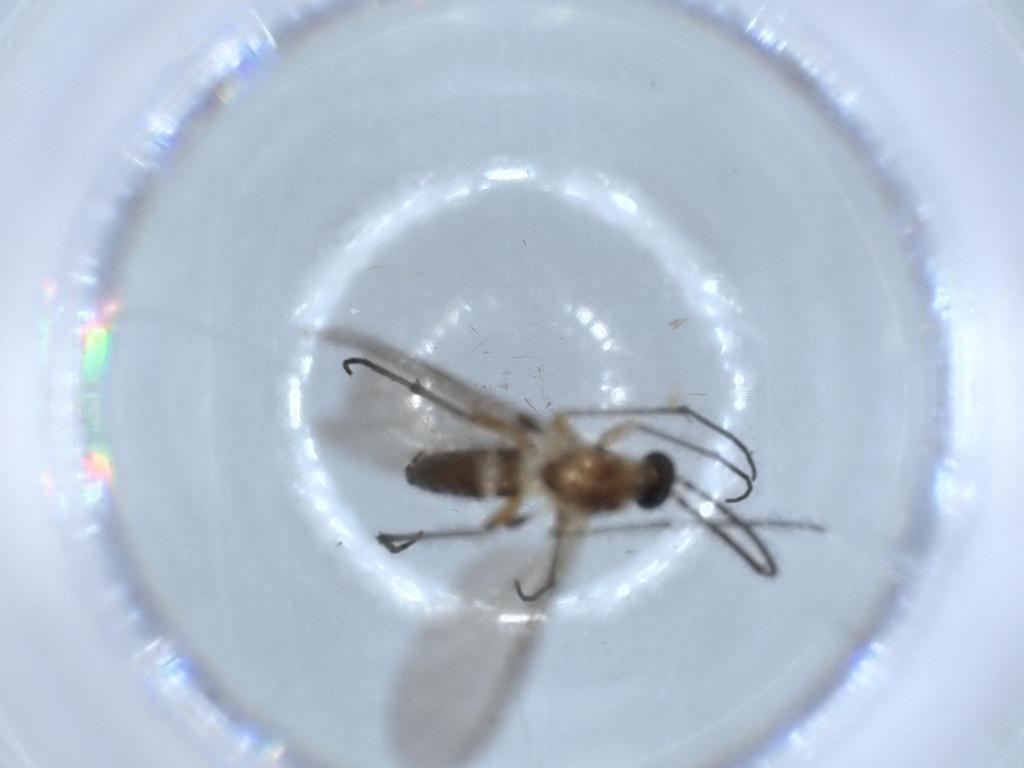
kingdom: Animalia
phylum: Arthropoda
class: Insecta
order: Diptera
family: Sciaridae
